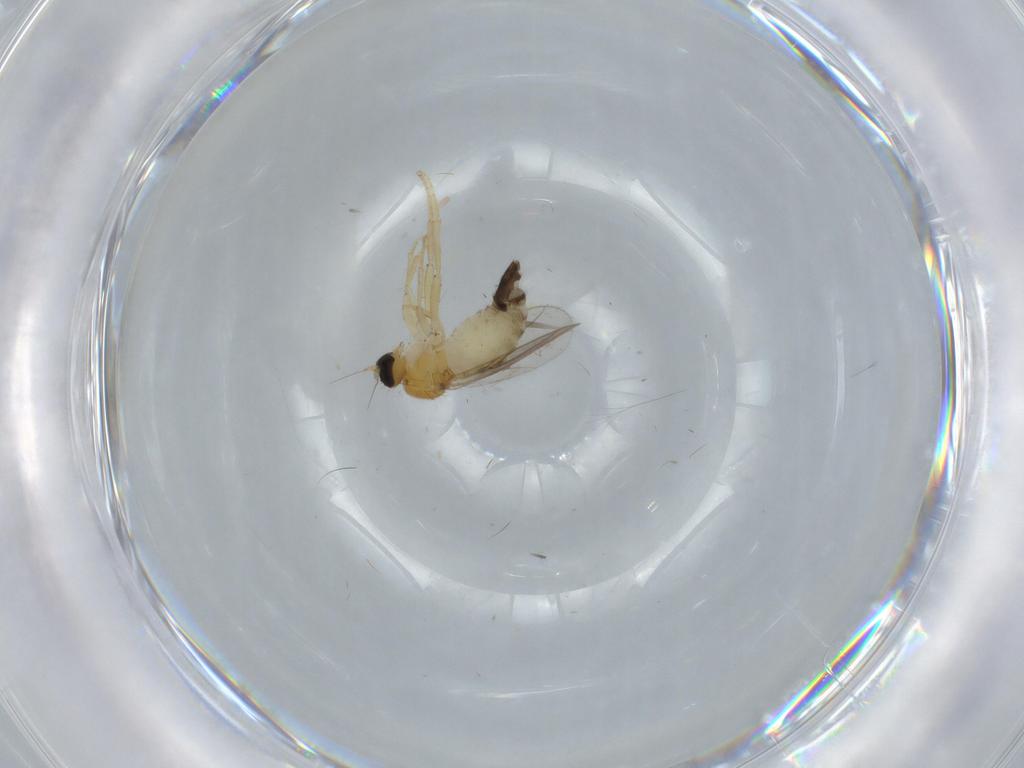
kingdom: Animalia
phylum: Arthropoda
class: Insecta
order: Diptera
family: Hybotidae
